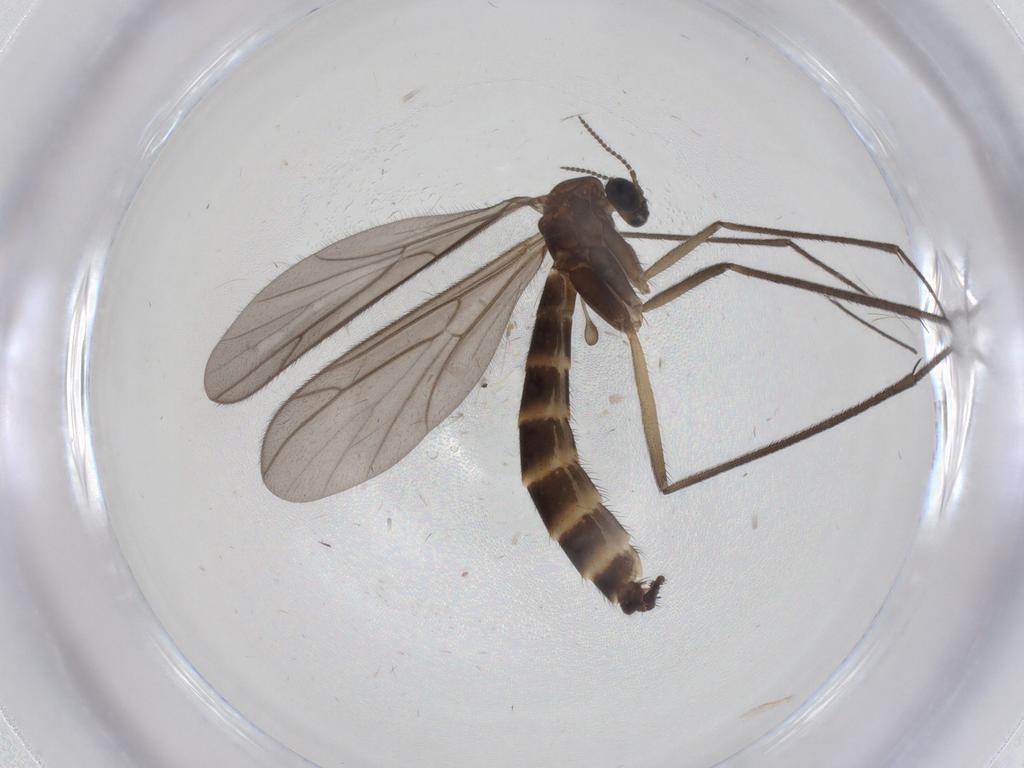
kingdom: Animalia
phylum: Arthropoda
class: Insecta
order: Diptera
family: Keroplatidae
